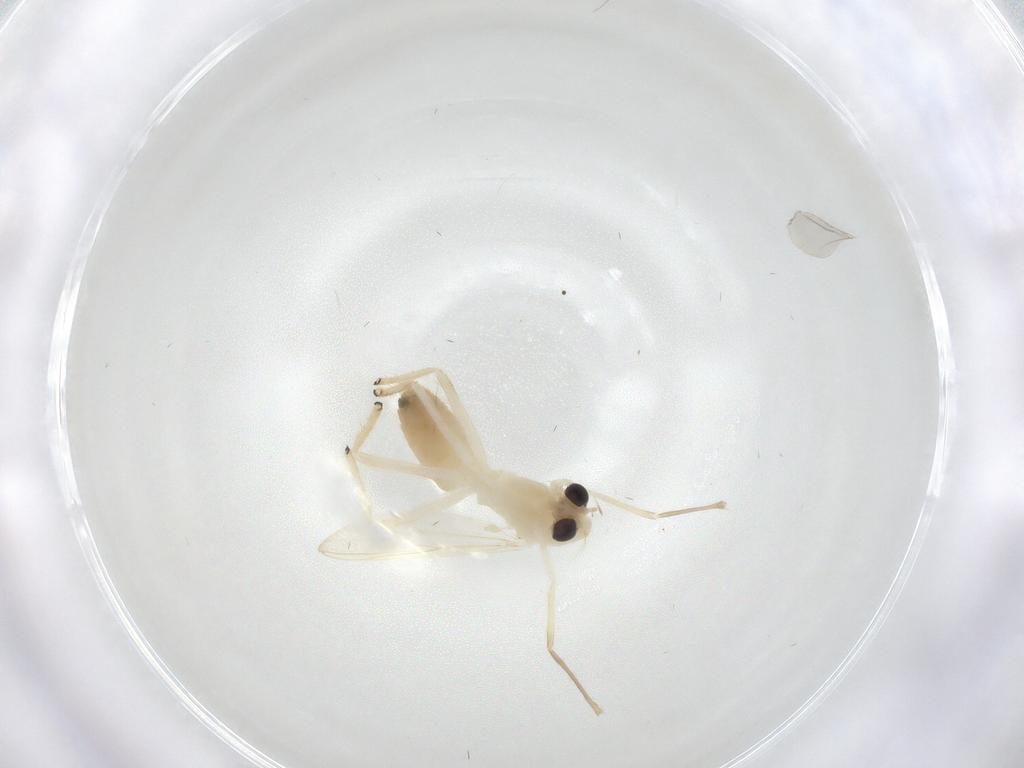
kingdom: Animalia
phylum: Arthropoda
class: Insecta
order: Diptera
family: Chironomidae
